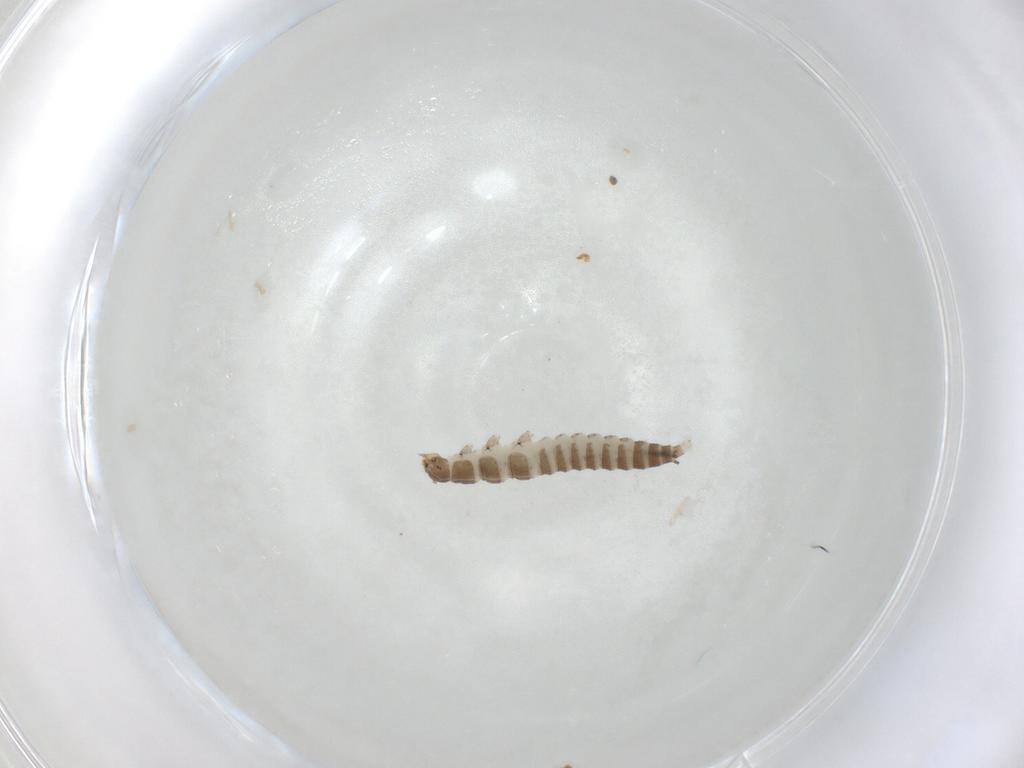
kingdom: Animalia
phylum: Arthropoda
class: Insecta
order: Coleoptera
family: Hydraenidae
